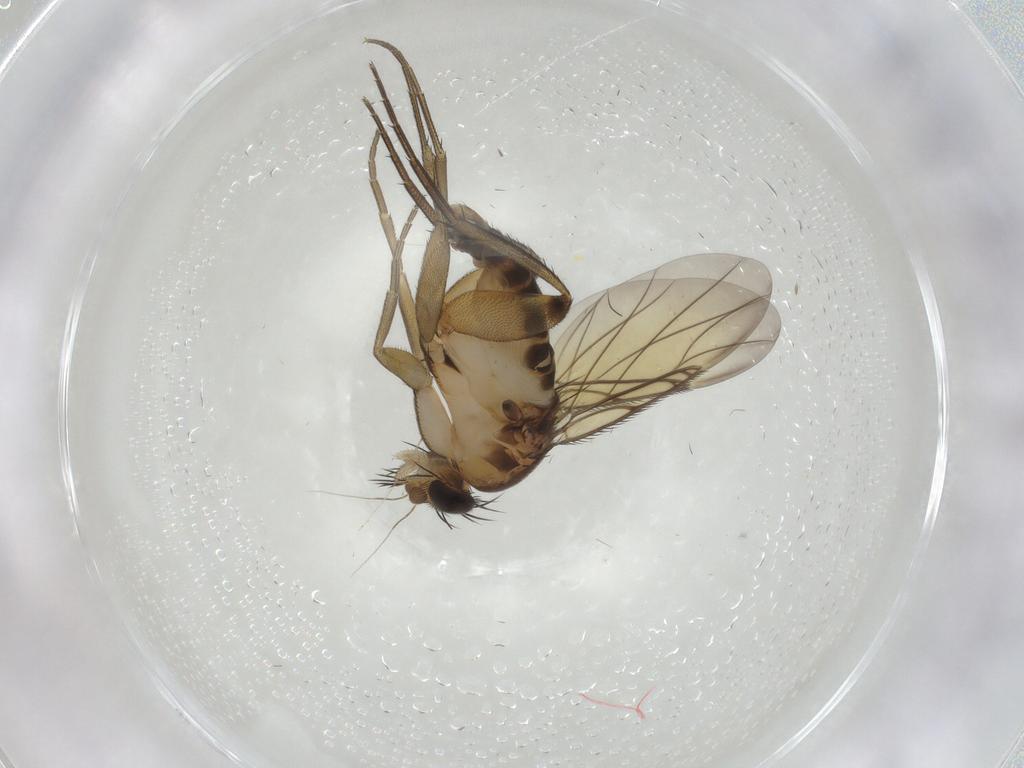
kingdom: Animalia
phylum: Arthropoda
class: Insecta
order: Diptera
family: Phoridae
